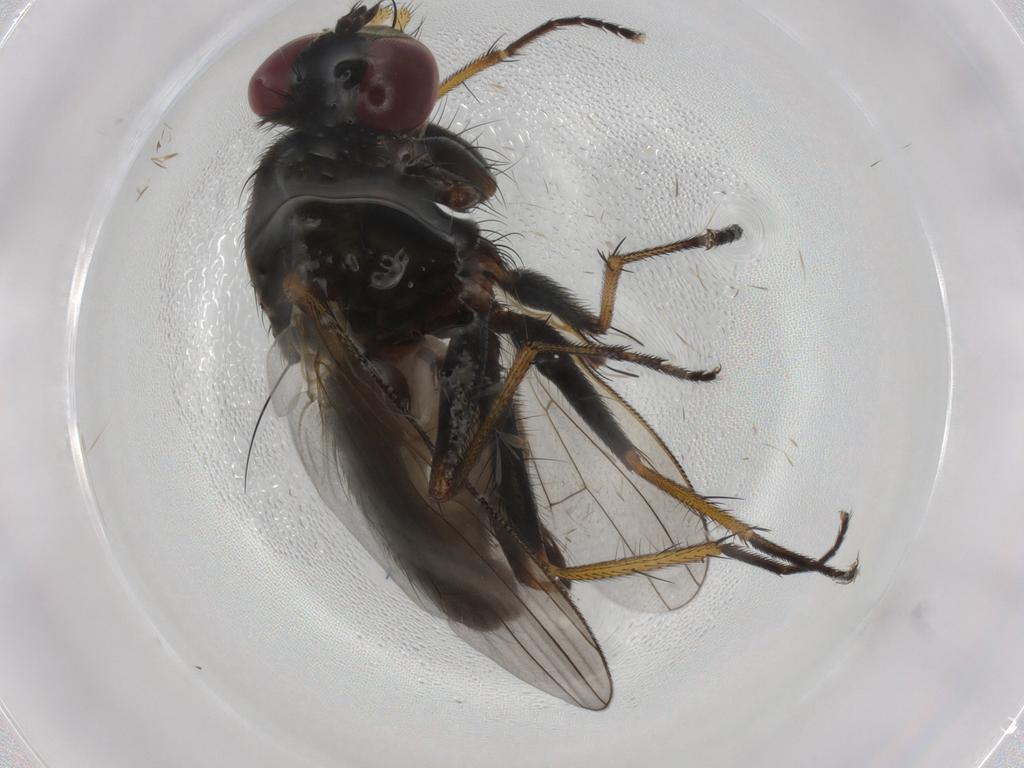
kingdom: Animalia
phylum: Arthropoda
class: Insecta
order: Diptera
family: Muscidae
